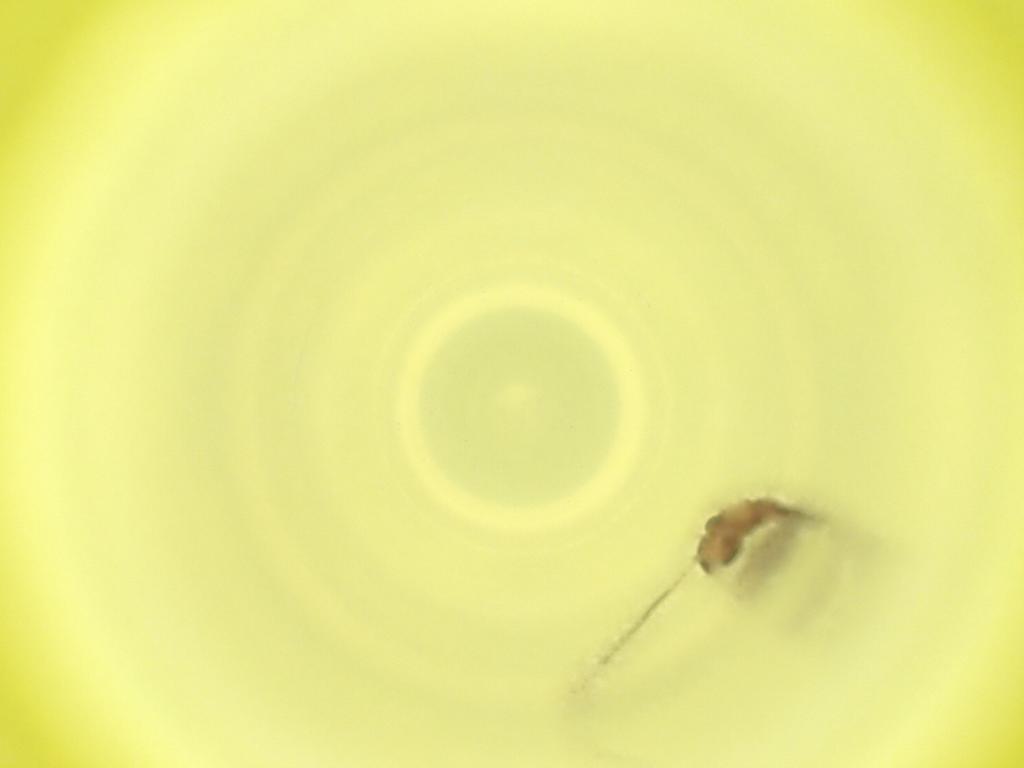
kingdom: Animalia
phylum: Arthropoda
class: Insecta
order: Diptera
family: Cecidomyiidae
